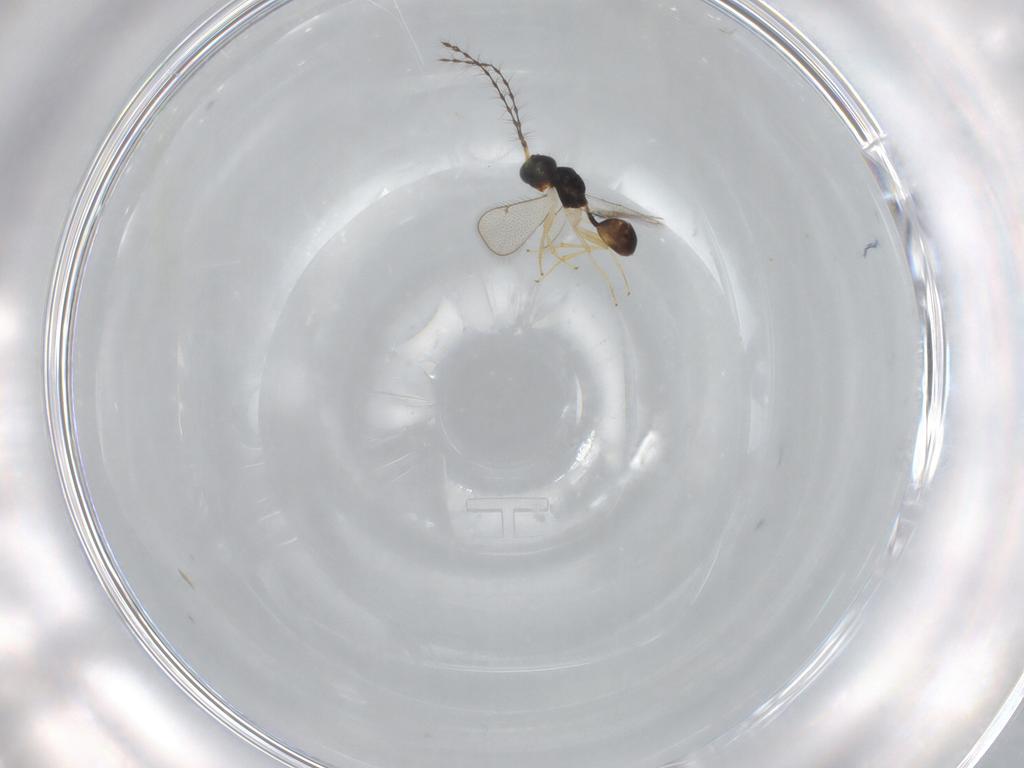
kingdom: Animalia
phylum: Arthropoda
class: Insecta
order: Hymenoptera
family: Diparidae
